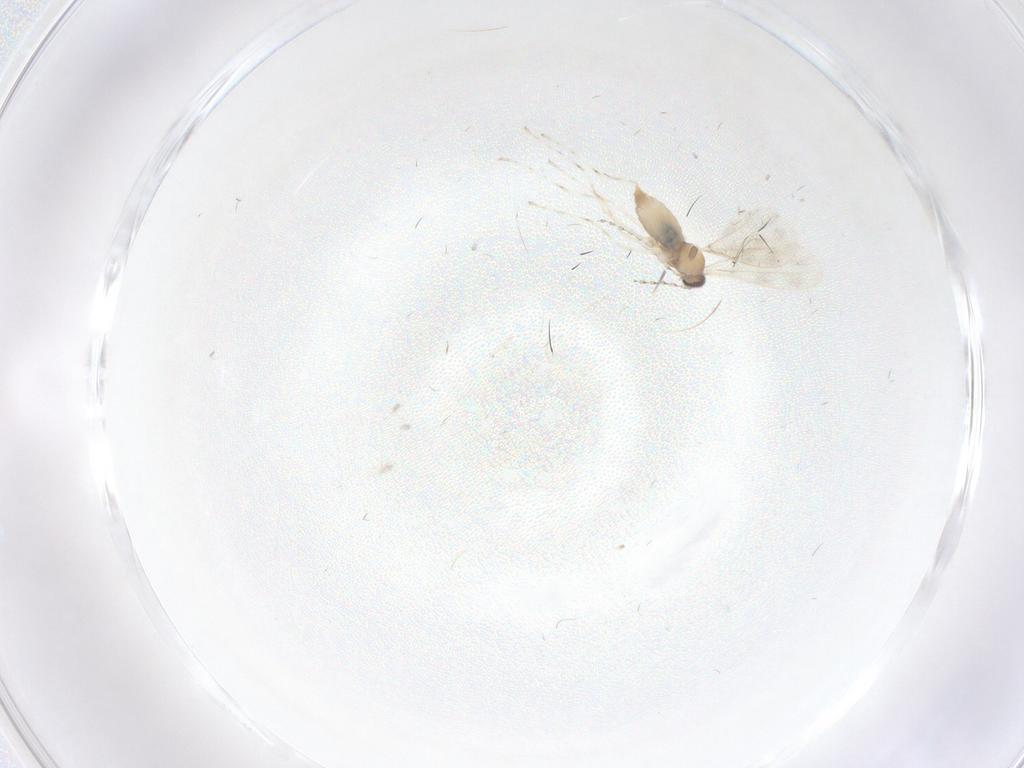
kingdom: Animalia
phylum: Arthropoda
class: Insecta
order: Diptera
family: Cecidomyiidae
